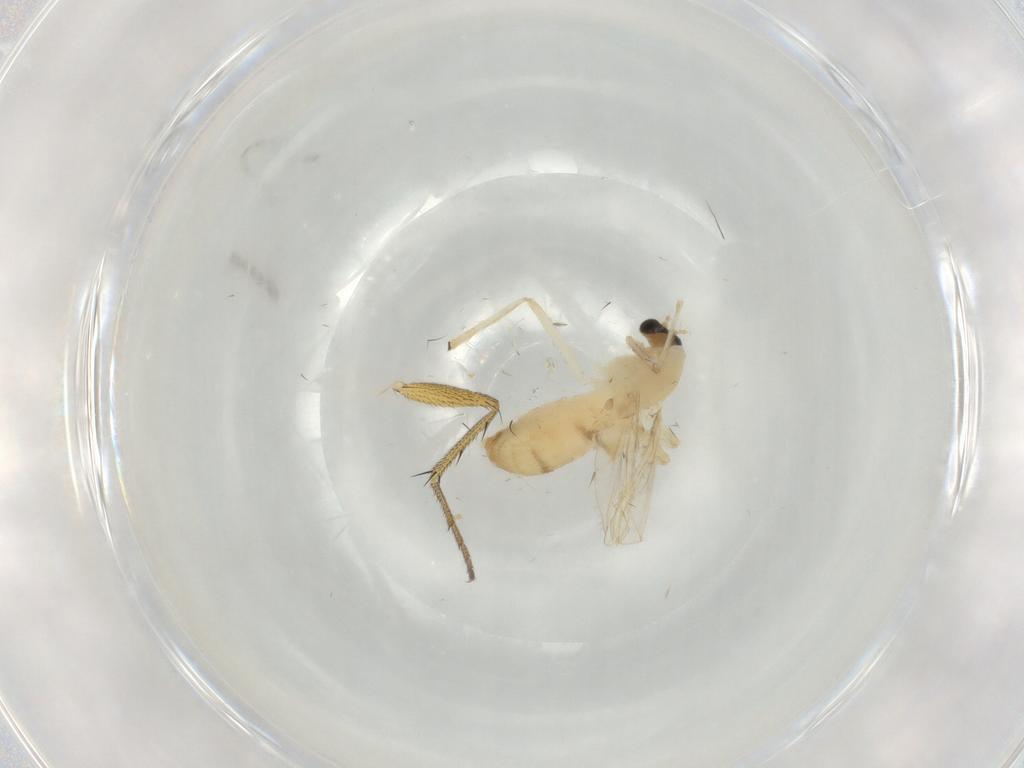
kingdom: Animalia
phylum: Arthropoda
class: Insecta
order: Diptera
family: Chironomidae
